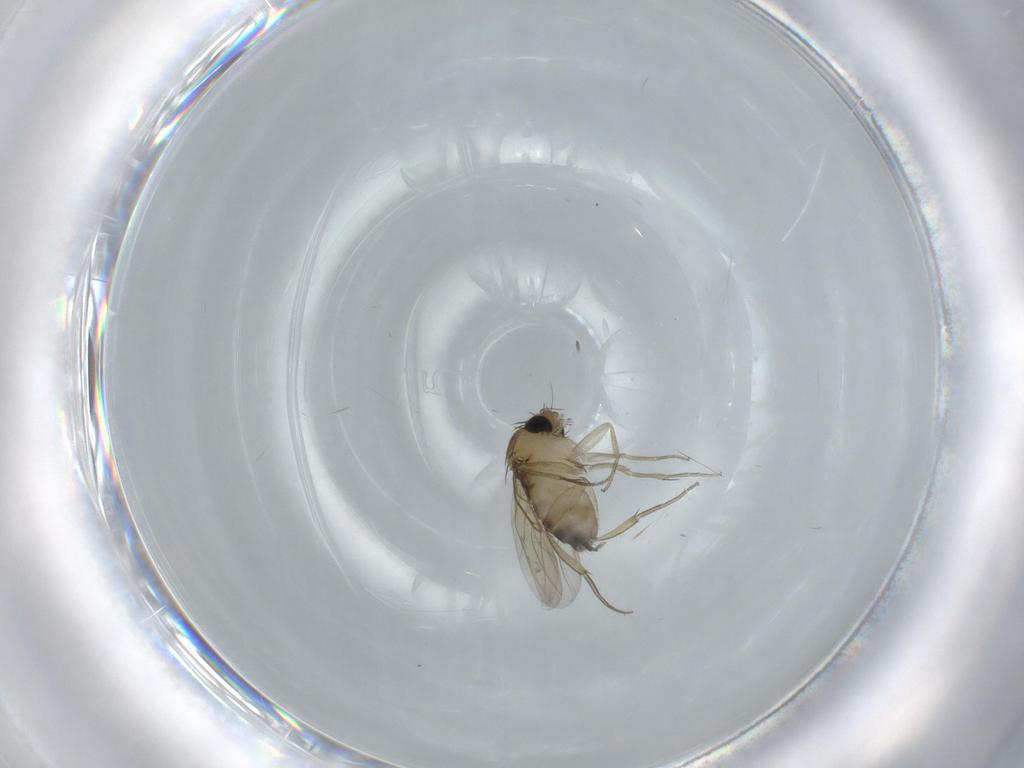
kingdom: Animalia
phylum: Arthropoda
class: Insecta
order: Diptera
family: Phoridae
